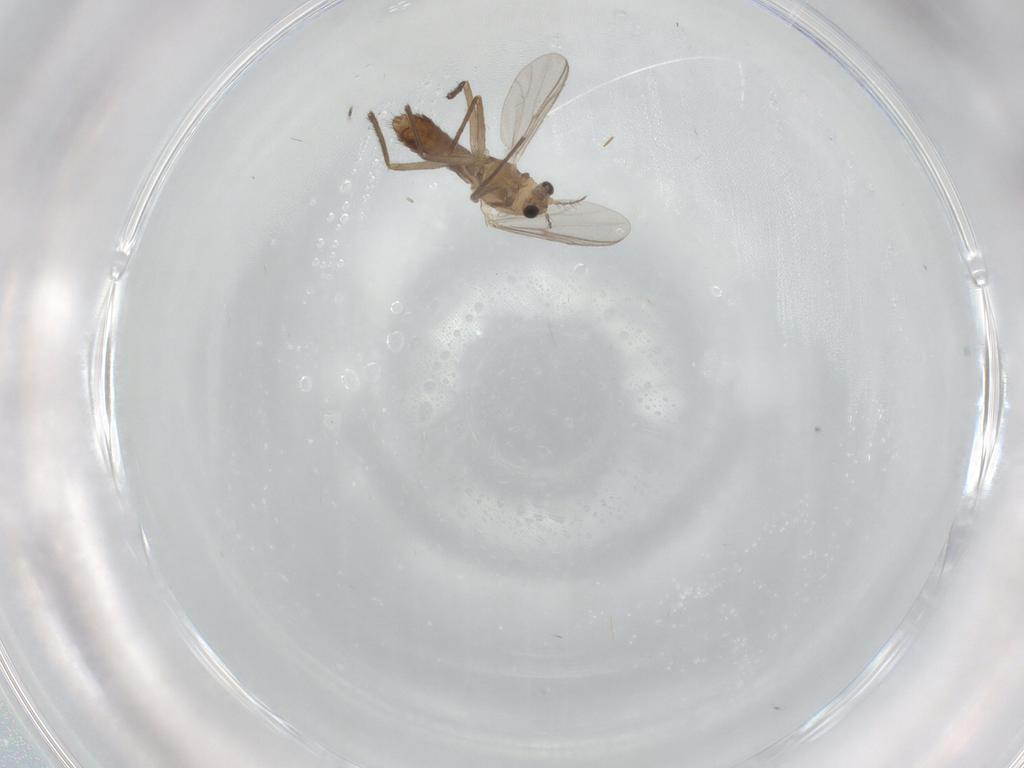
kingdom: Animalia
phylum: Arthropoda
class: Insecta
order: Diptera
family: Chironomidae
